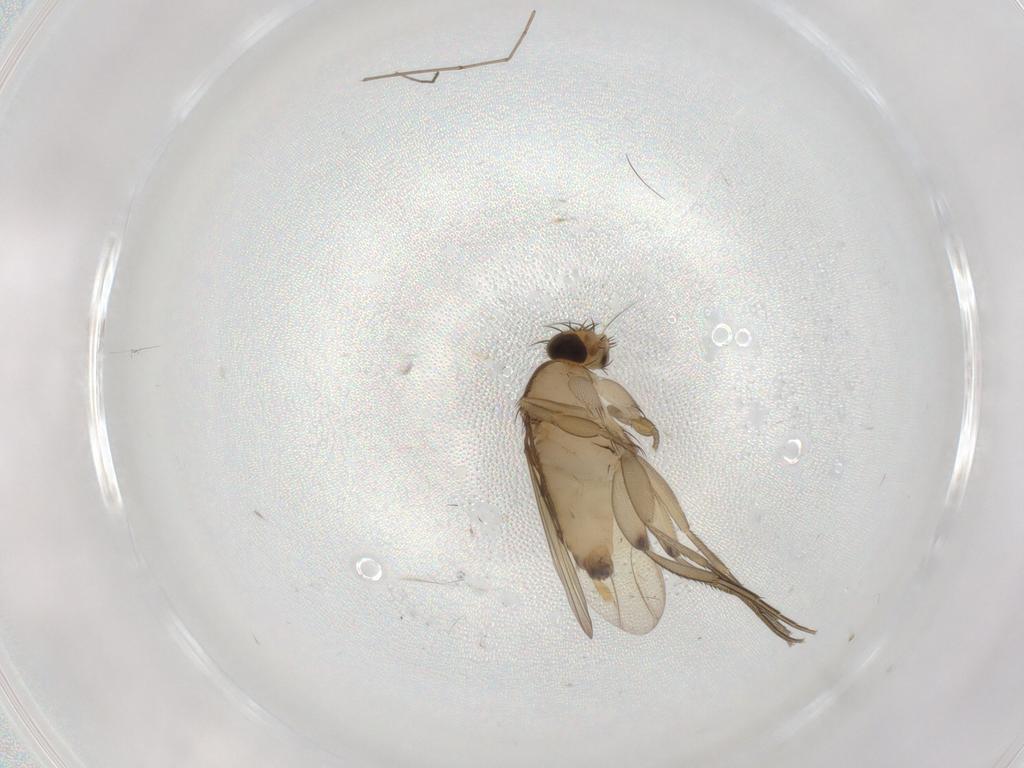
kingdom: Animalia
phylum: Arthropoda
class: Insecta
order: Diptera
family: Phoridae
